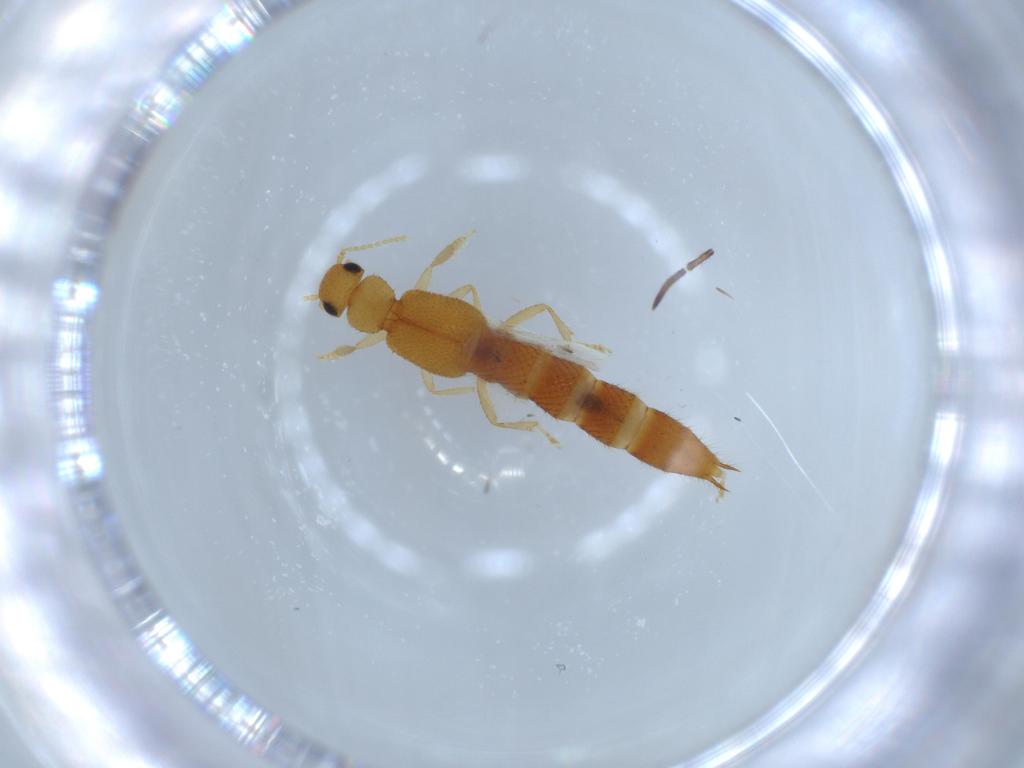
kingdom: Animalia
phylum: Arthropoda
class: Insecta
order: Coleoptera
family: Staphylinidae
